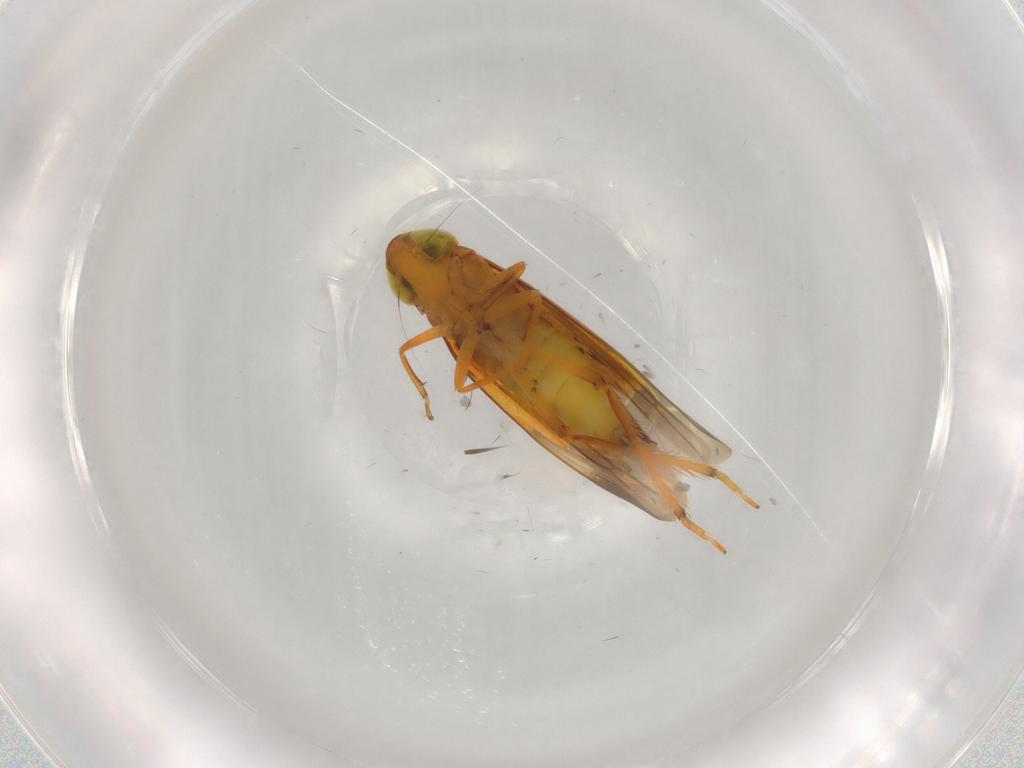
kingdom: Animalia
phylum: Arthropoda
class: Insecta
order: Hemiptera
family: Cicadellidae
